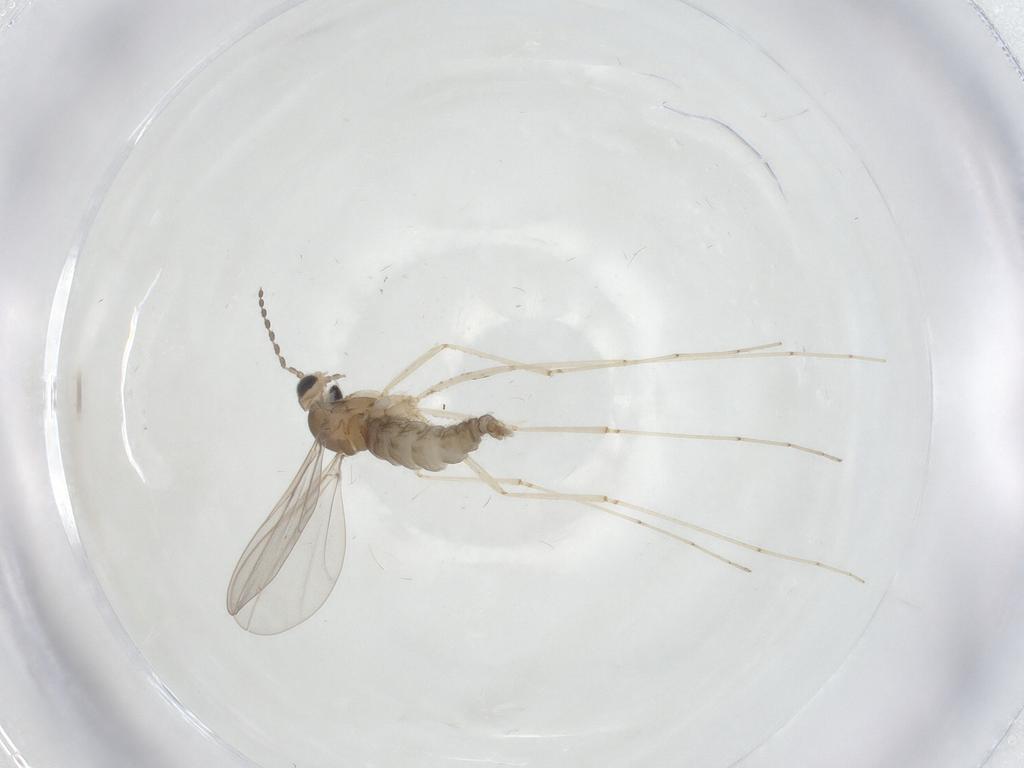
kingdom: Animalia
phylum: Arthropoda
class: Insecta
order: Diptera
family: Cecidomyiidae
